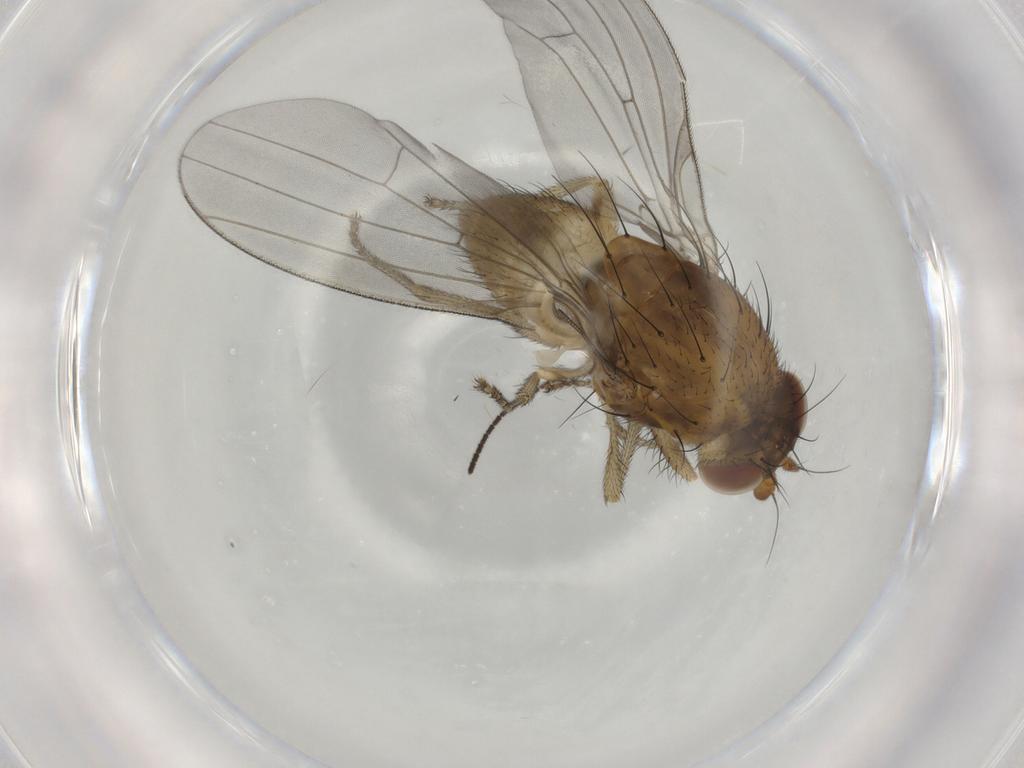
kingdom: Animalia
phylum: Arthropoda
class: Insecta
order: Diptera
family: Lauxaniidae
